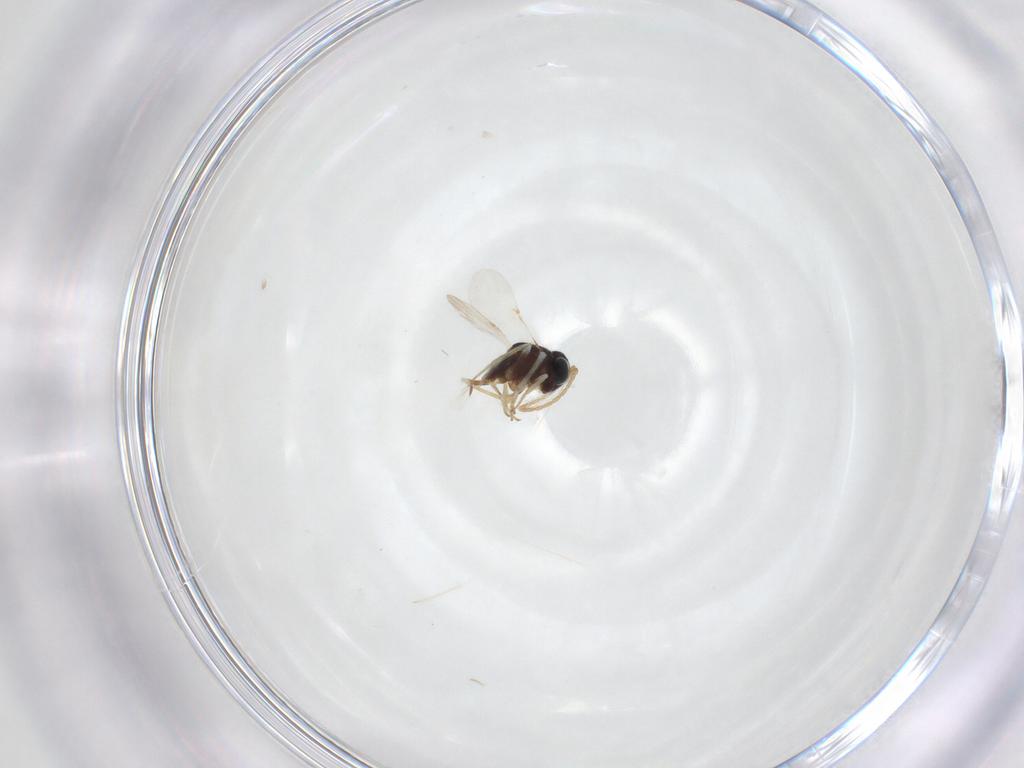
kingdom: Animalia
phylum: Arthropoda
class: Insecta
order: Hymenoptera
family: Encyrtidae
